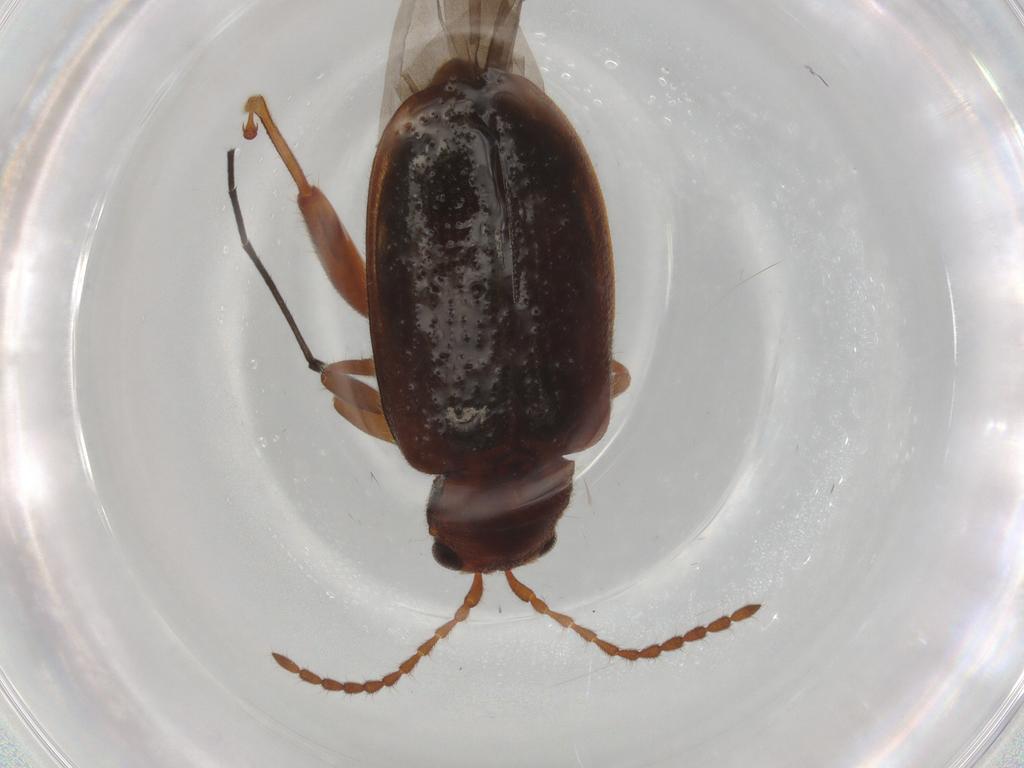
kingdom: Animalia
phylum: Arthropoda
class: Insecta
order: Coleoptera
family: Chrysomelidae
